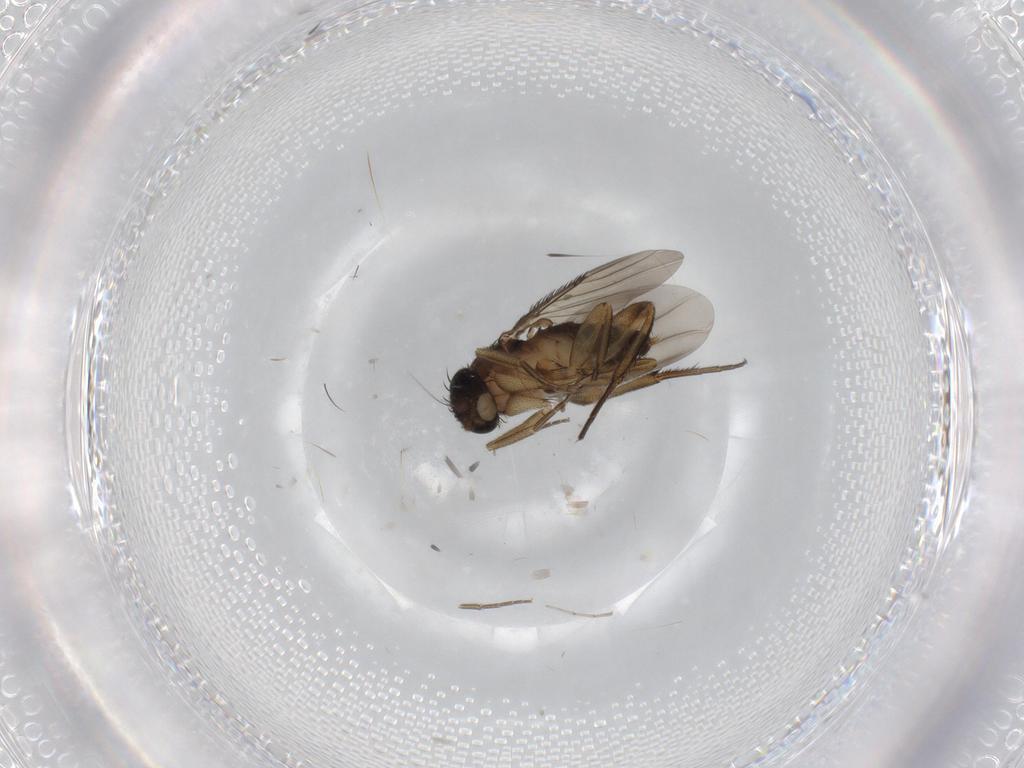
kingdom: Animalia
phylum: Arthropoda
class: Insecta
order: Diptera
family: Phoridae
